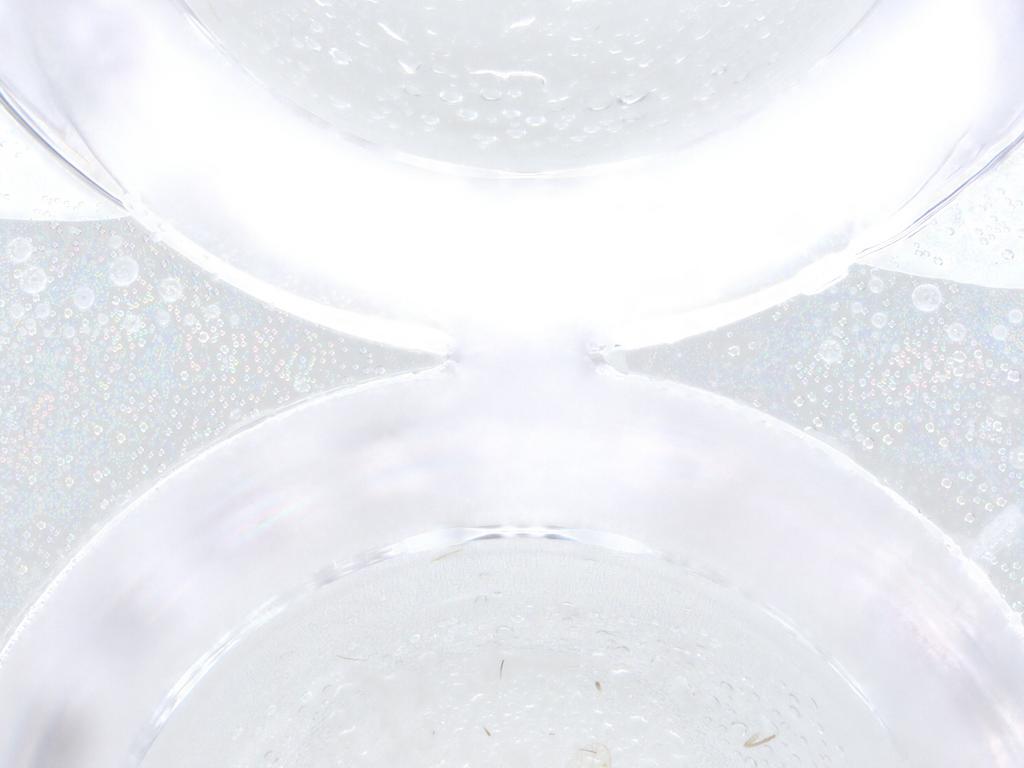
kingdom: Animalia
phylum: Arthropoda
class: Insecta
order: Diptera
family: Ceratopogonidae
